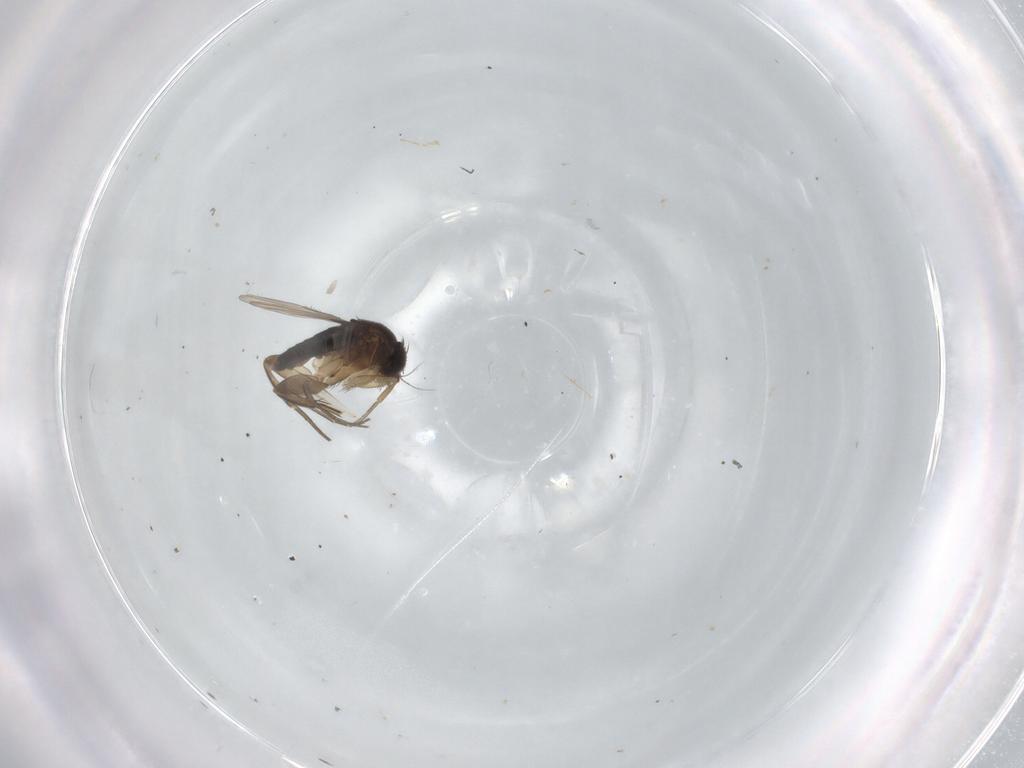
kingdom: Animalia
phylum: Arthropoda
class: Insecta
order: Diptera
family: Phoridae
